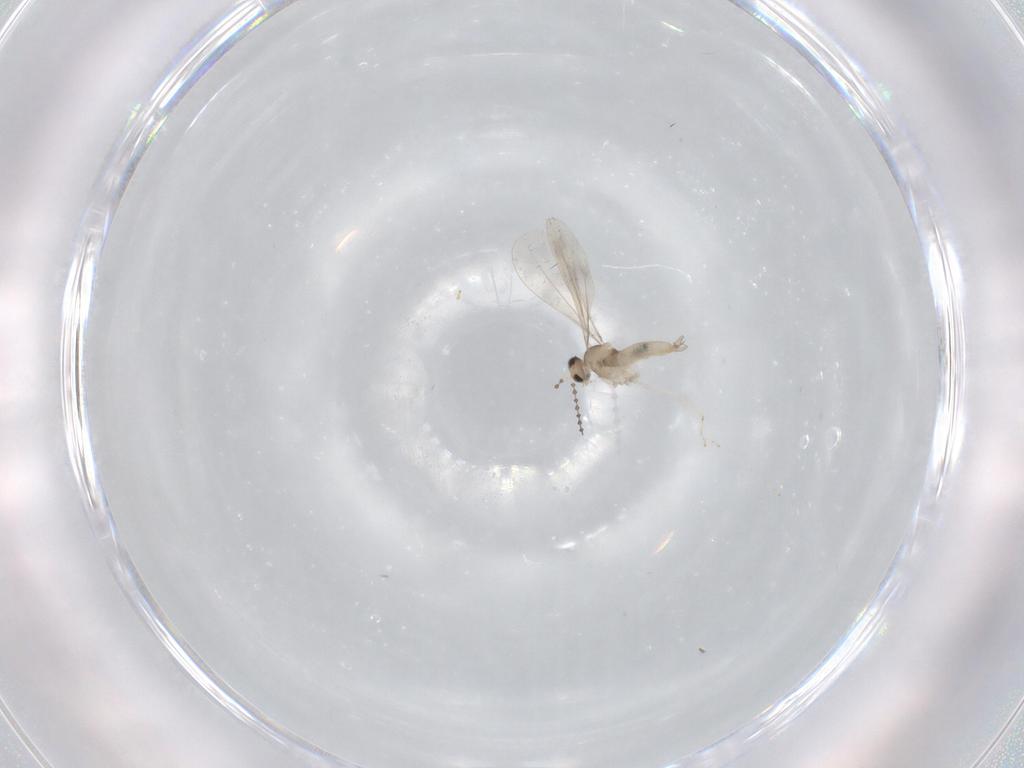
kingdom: Animalia
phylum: Arthropoda
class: Insecta
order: Diptera
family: Cecidomyiidae
